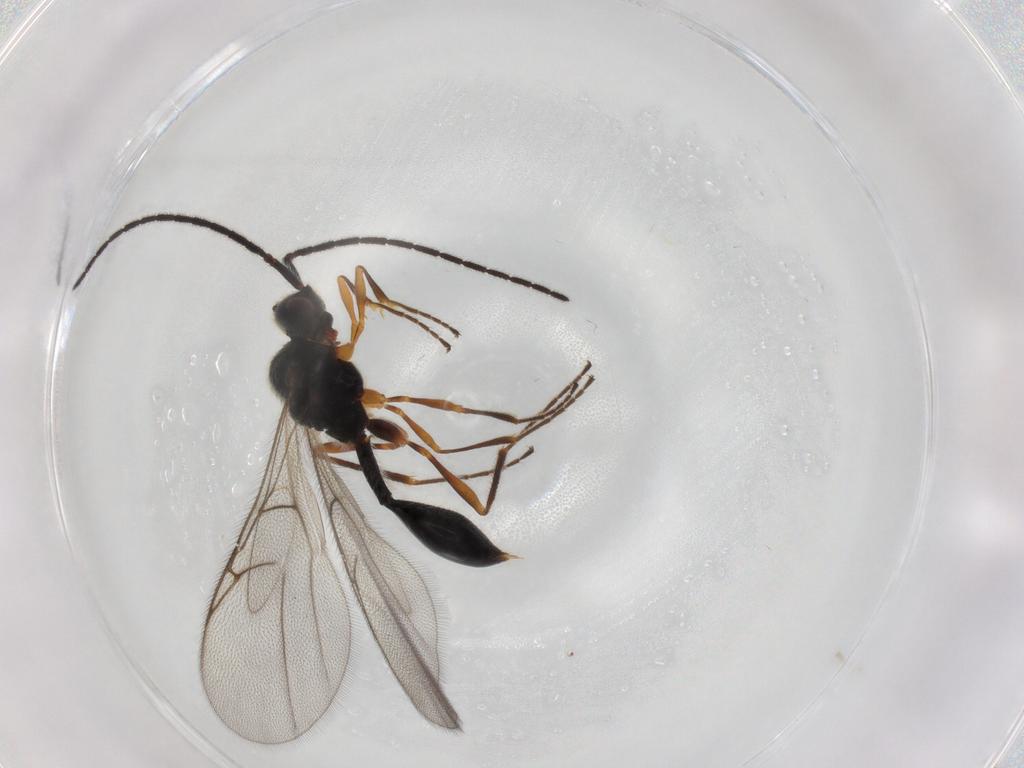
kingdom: Animalia
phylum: Arthropoda
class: Insecta
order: Hymenoptera
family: Diapriidae
